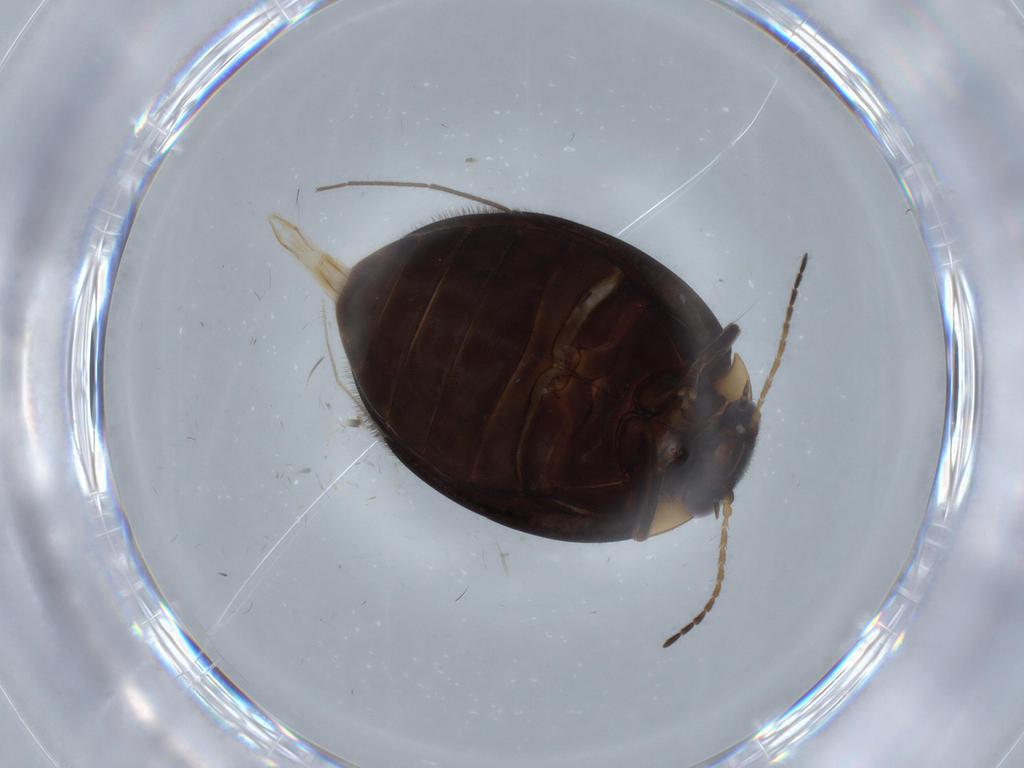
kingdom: Animalia
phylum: Arthropoda
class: Insecta
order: Coleoptera
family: Scirtidae
